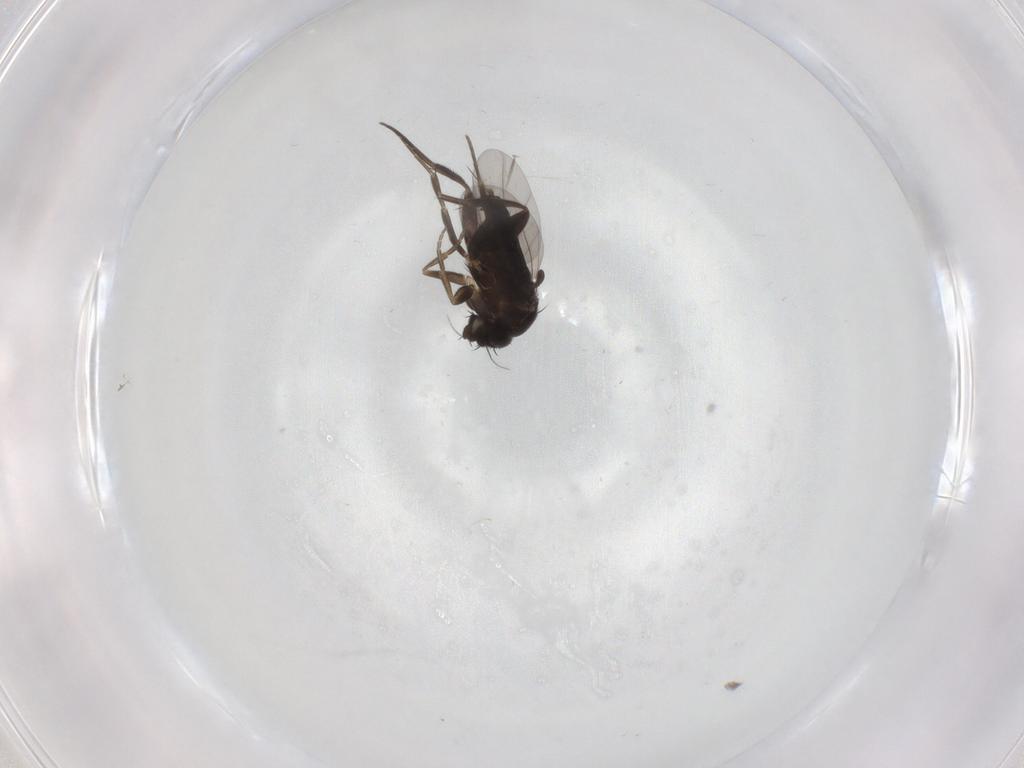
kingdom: Animalia
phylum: Arthropoda
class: Insecta
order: Diptera
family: Phoridae
